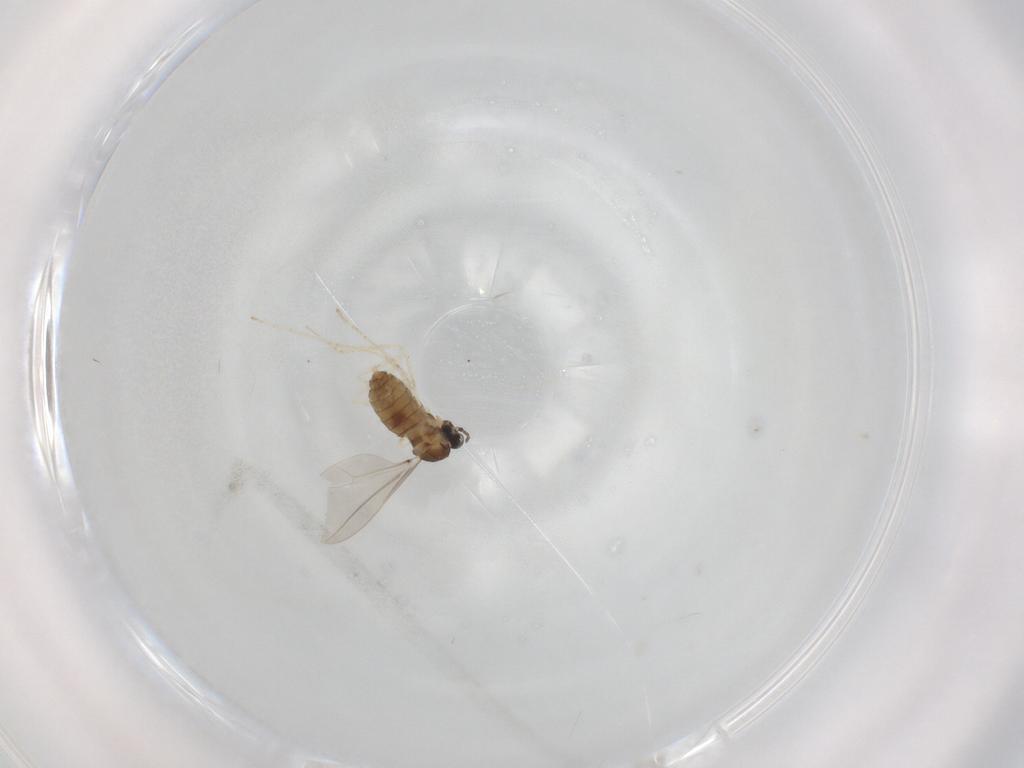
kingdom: Animalia
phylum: Arthropoda
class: Insecta
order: Diptera
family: Cecidomyiidae
